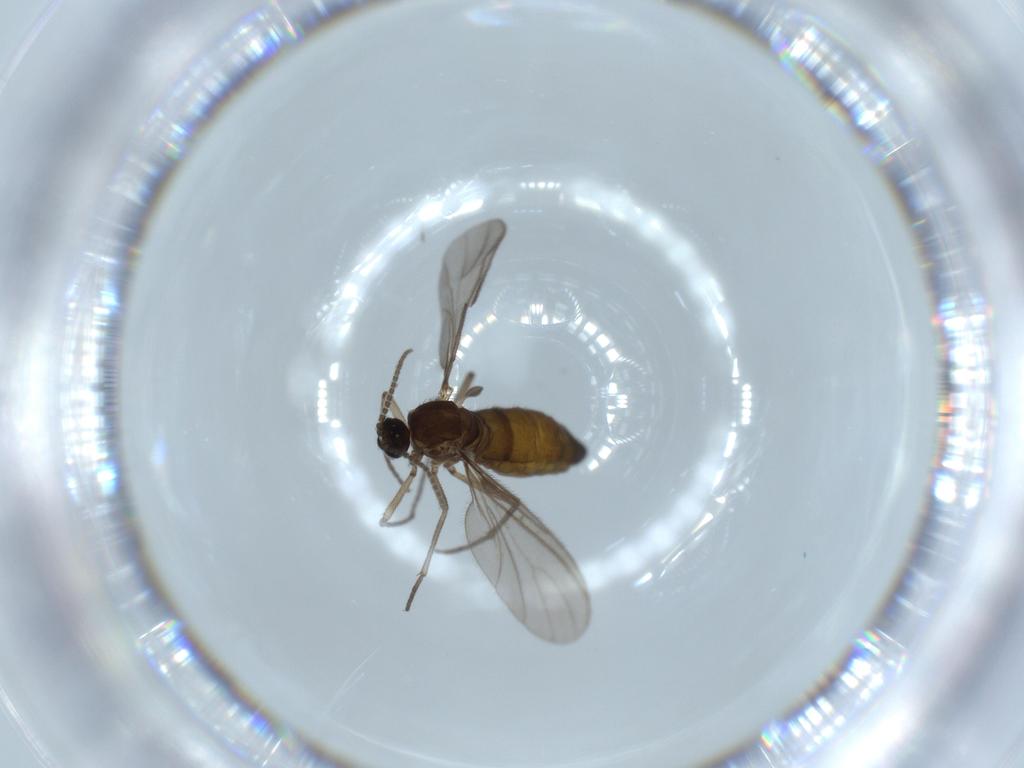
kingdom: Animalia
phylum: Arthropoda
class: Insecta
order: Diptera
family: Sciaridae
